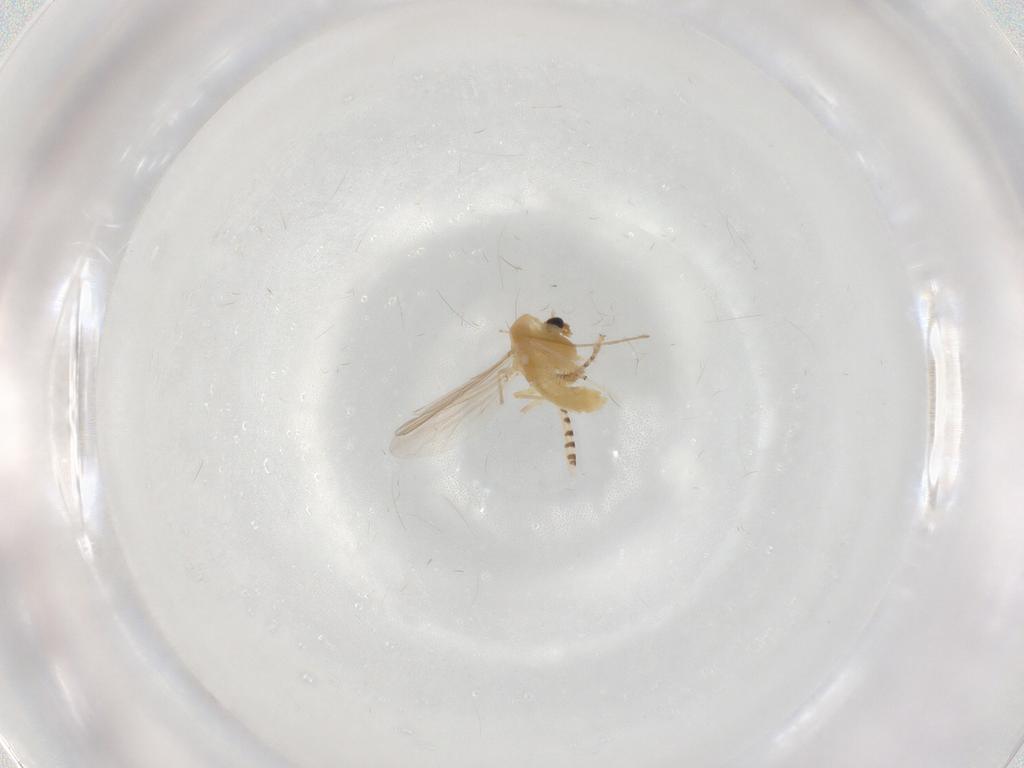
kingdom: Animalia
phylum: Arthropoda
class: Insecta
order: Diptera
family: Chironomidae
